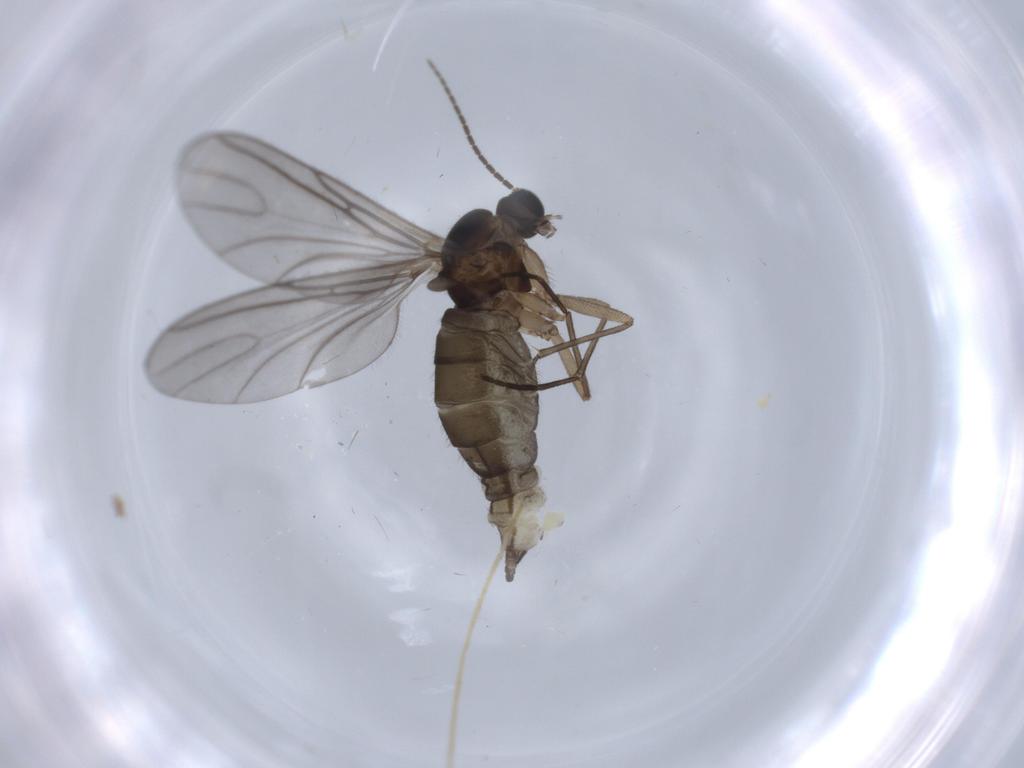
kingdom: Animalia
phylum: Arthropoda
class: Insecta
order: Diptera
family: Sciaridae
